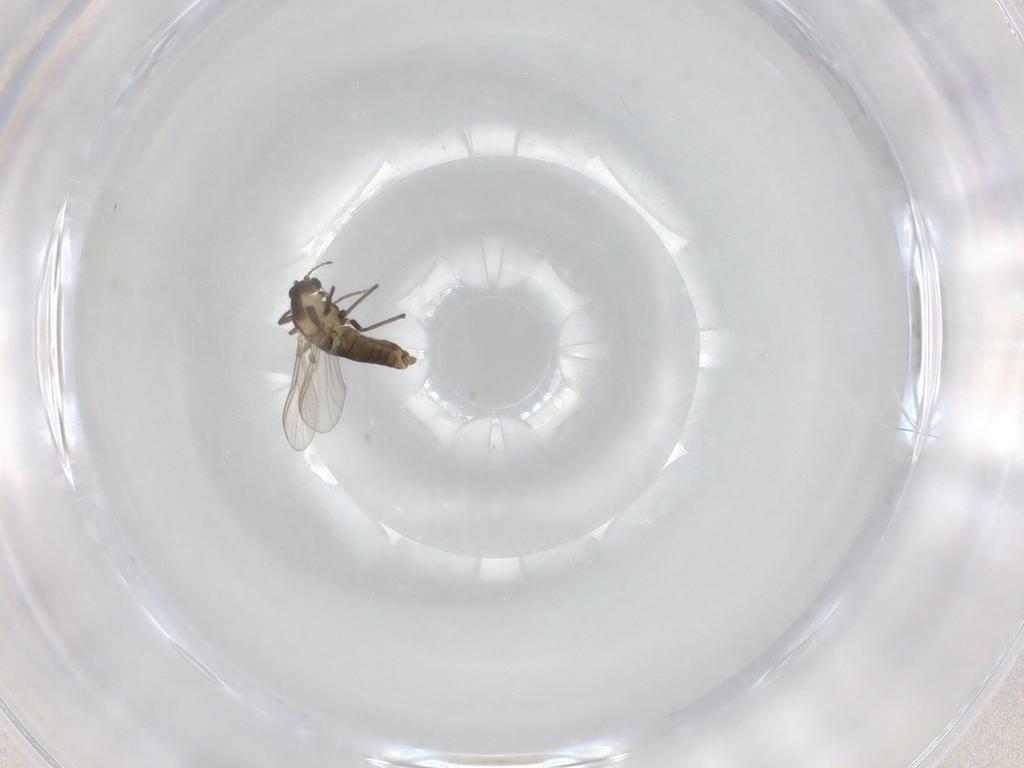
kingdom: Animalia
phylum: Arthropoda
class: Insecta
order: Diptera
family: Chironomidae
